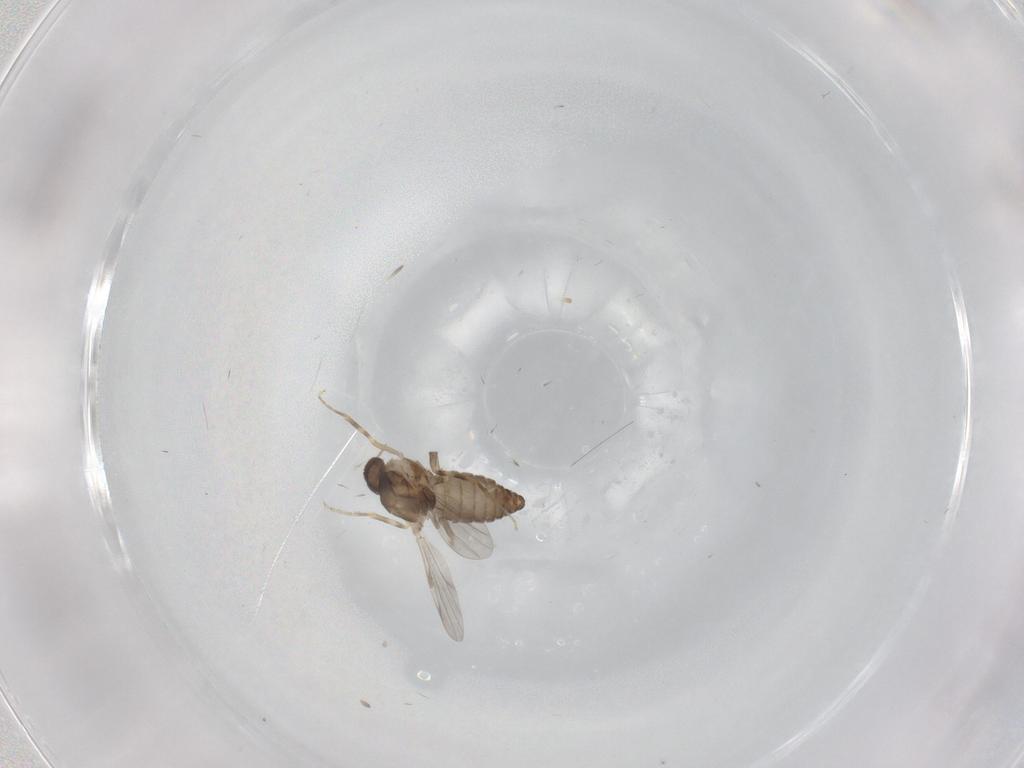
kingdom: Animalia
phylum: Arthropoda
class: Insecta
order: Diptera
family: Ceratopogonidae
